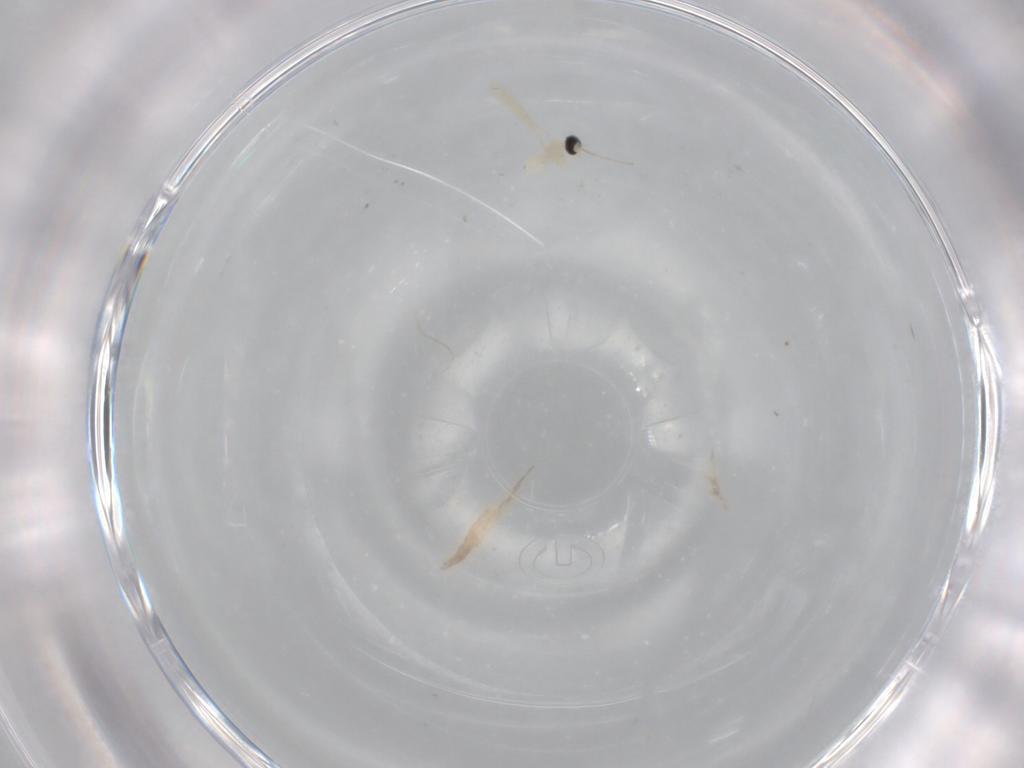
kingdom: Animalia
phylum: Arthropoda
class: Insecta
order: Diptera
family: Cecidomyiidae
